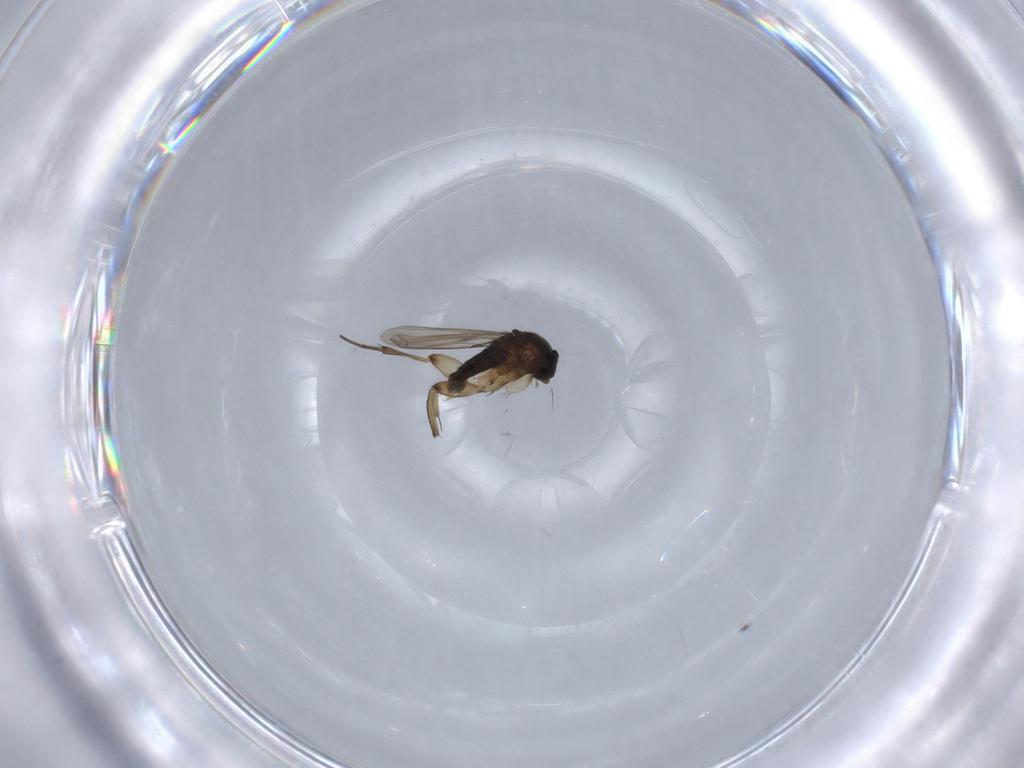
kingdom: Animalia
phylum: Arthropoda
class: Insecta
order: Diptera
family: Phoridae
